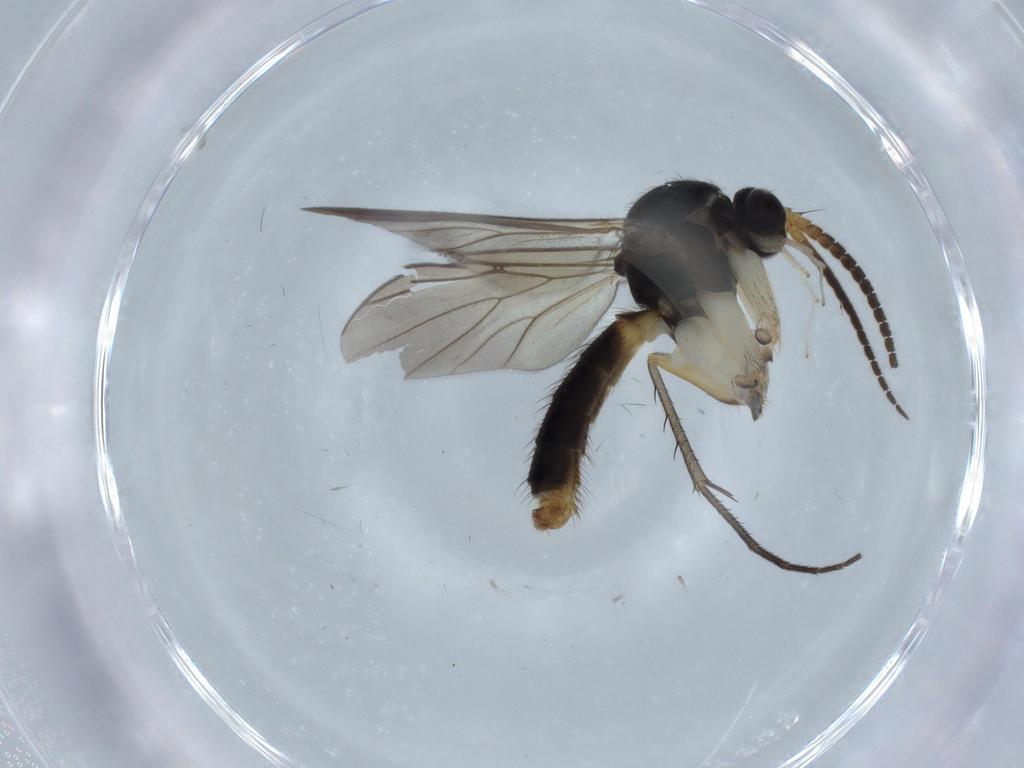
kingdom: Animalia
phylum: Arthropoda
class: Insecta
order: Diptera
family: Mycetophilidae
